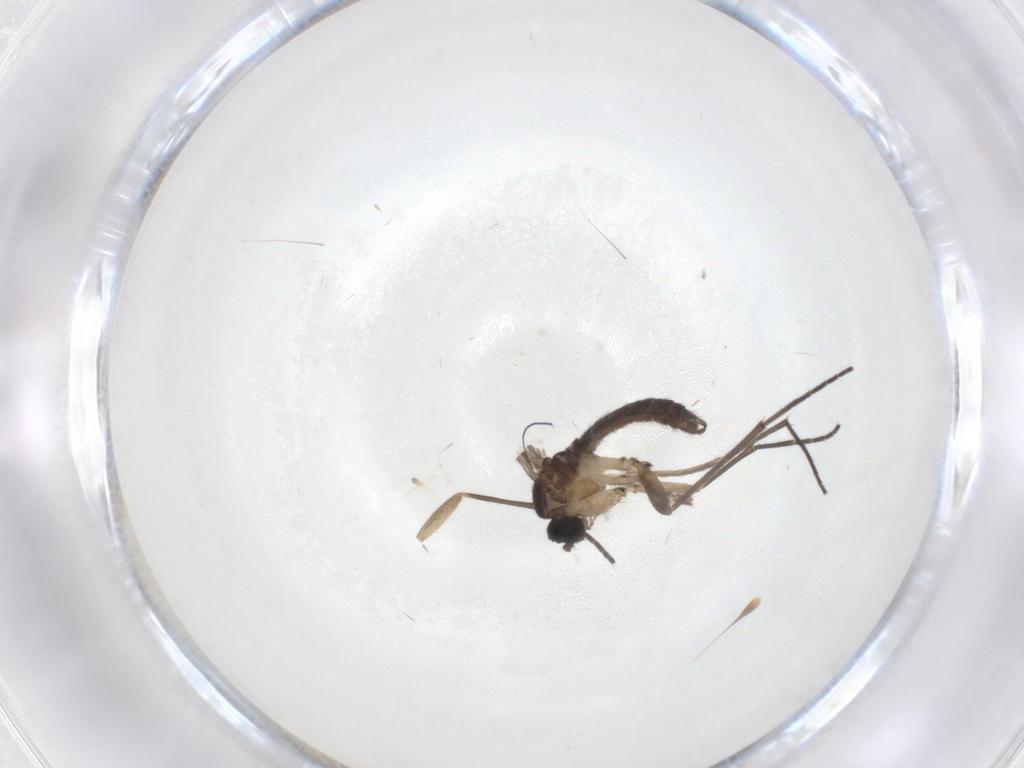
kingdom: Animalia
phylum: Arthropoda
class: Insecta
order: Diptera
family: Sciaridae
